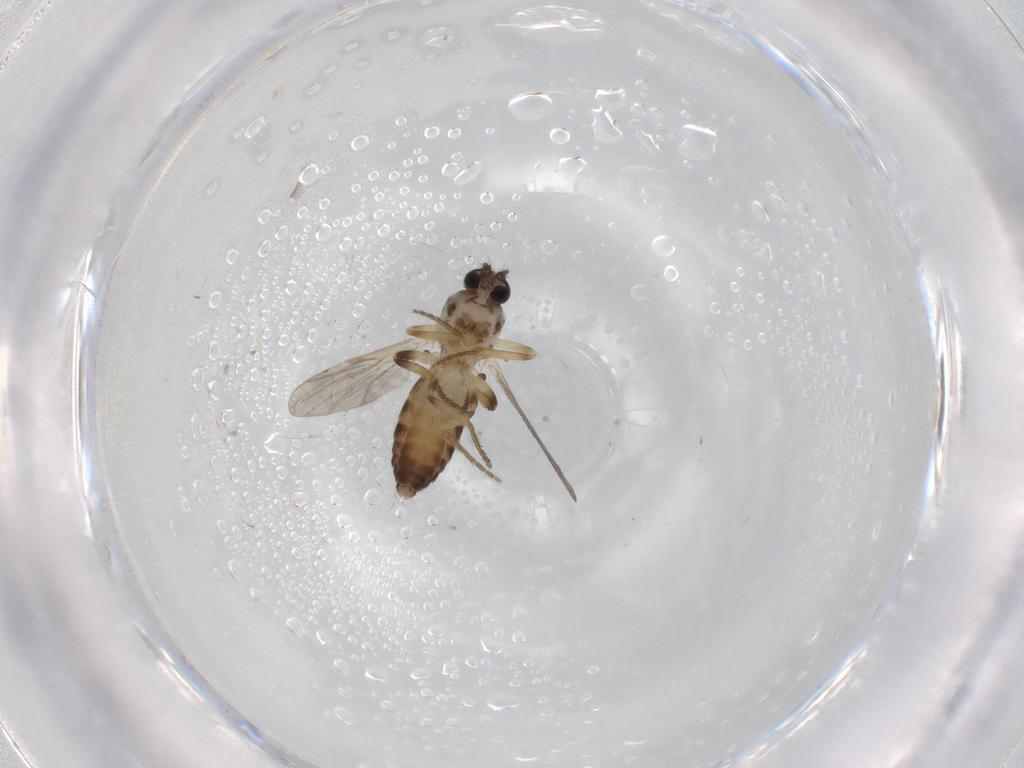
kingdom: Animalia
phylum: Arthropoda
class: Insecta
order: Diptera
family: Ceratopogonidae
